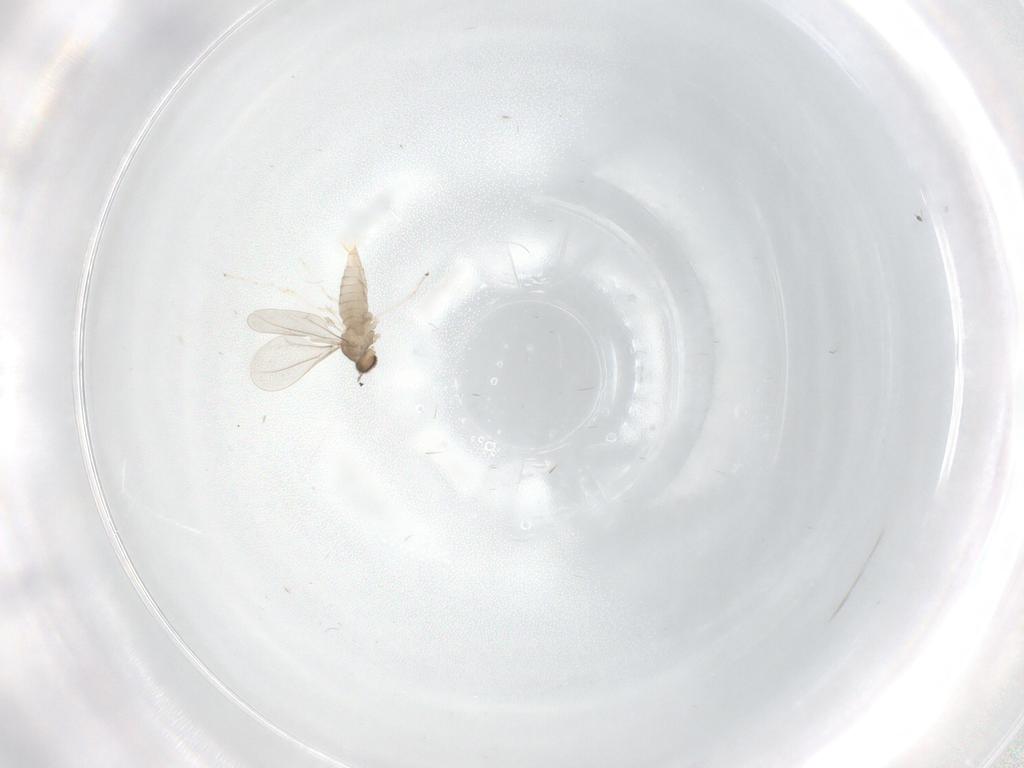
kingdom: Animalia
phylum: Arthropoda
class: Insecta
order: Diptera
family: Cecidomyiidae
